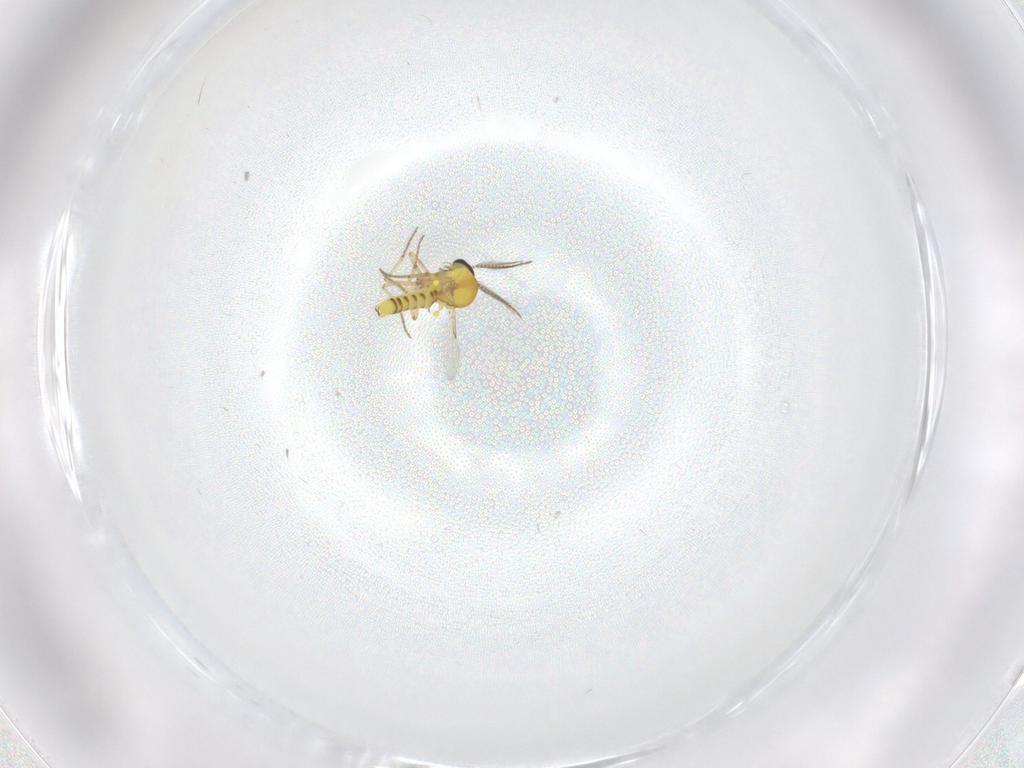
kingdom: Animalia
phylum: Arthropoda
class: Insecta
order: Diptera
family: Ceratopogonidae
